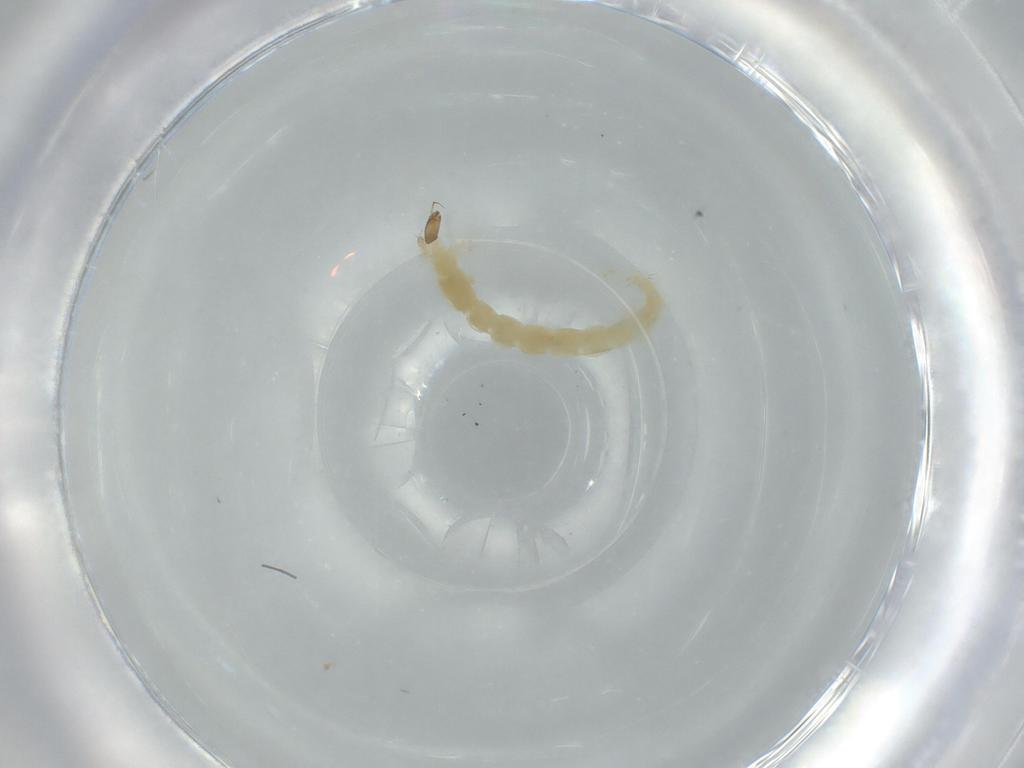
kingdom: Animalia
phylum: Arthropoda
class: Insecta
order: Diptera
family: Chironomidae
